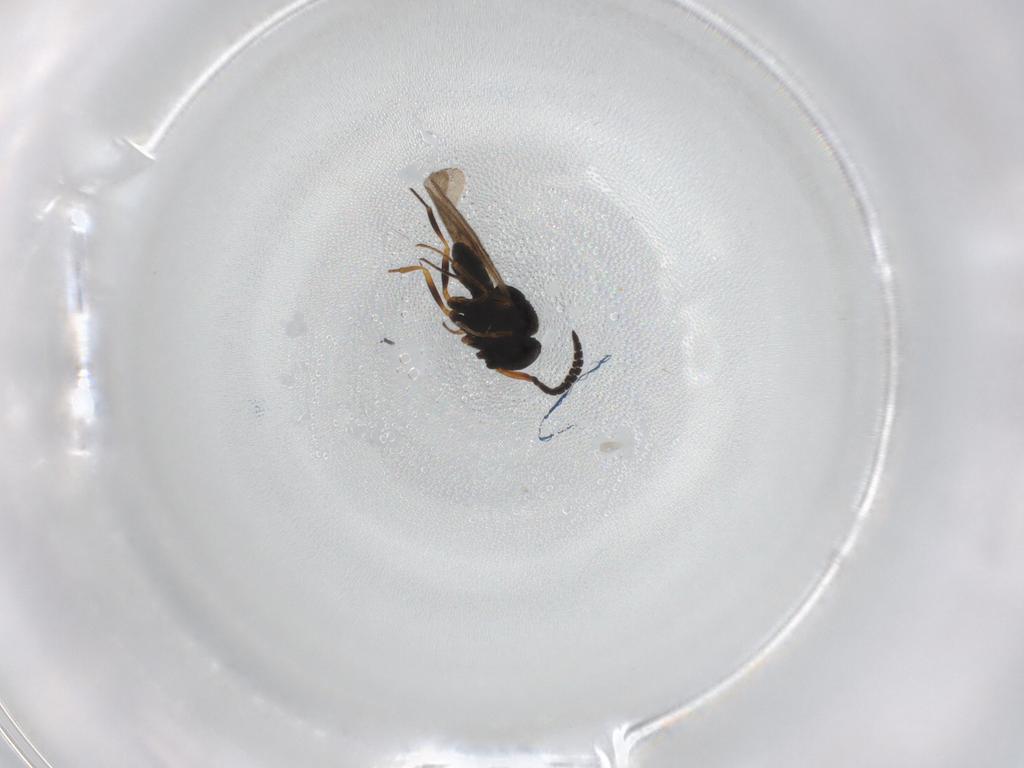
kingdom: Animalia
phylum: Arthropoda
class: Insecta
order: Hymenoptera
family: Scelionidae
